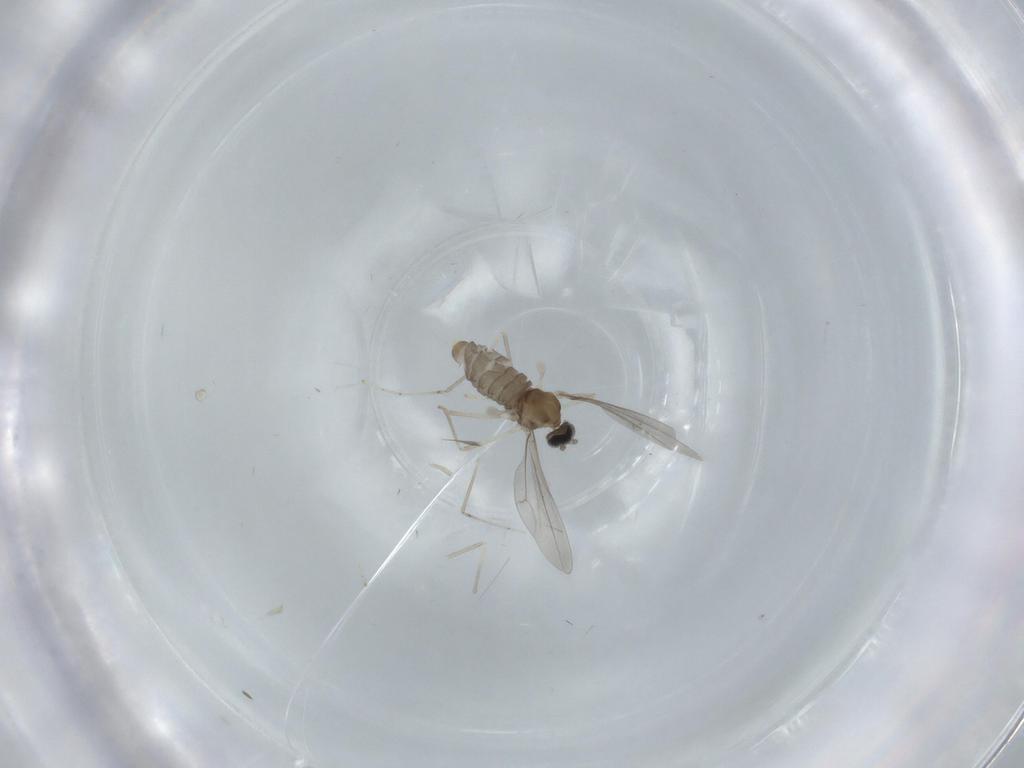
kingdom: Animalia
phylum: Arthropoda
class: Insecta
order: Diptera
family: Cecidomyiidae
